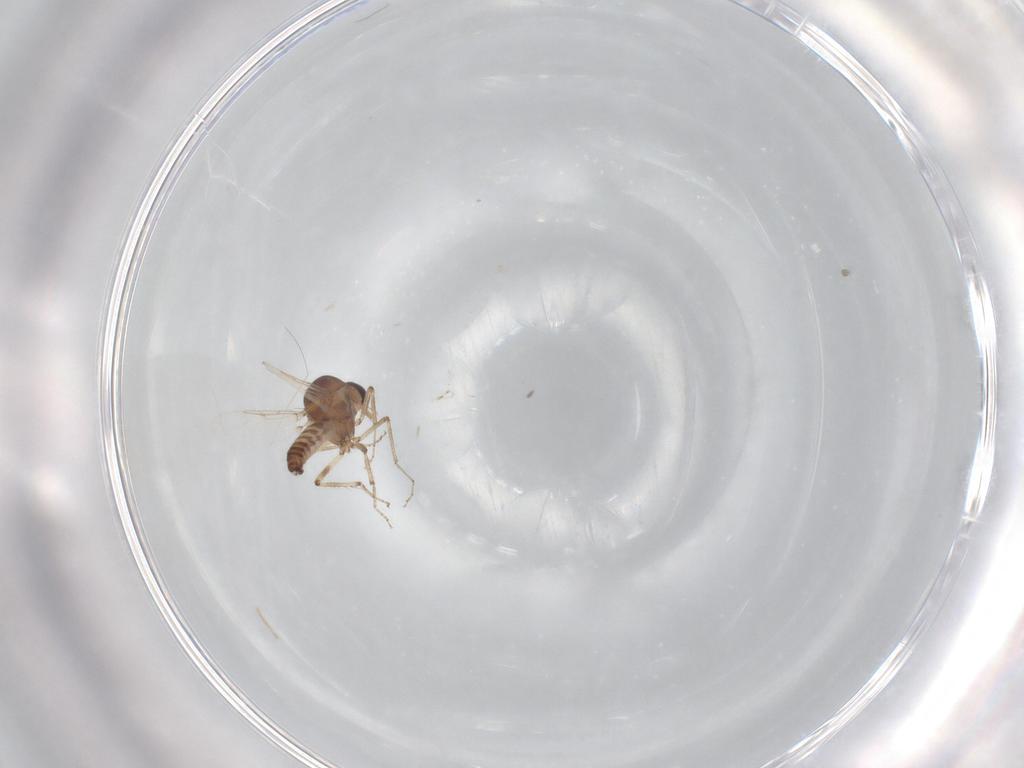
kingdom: Animalia
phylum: Arthropoda
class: Insecta
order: Diptera
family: Ceratopogonidae
